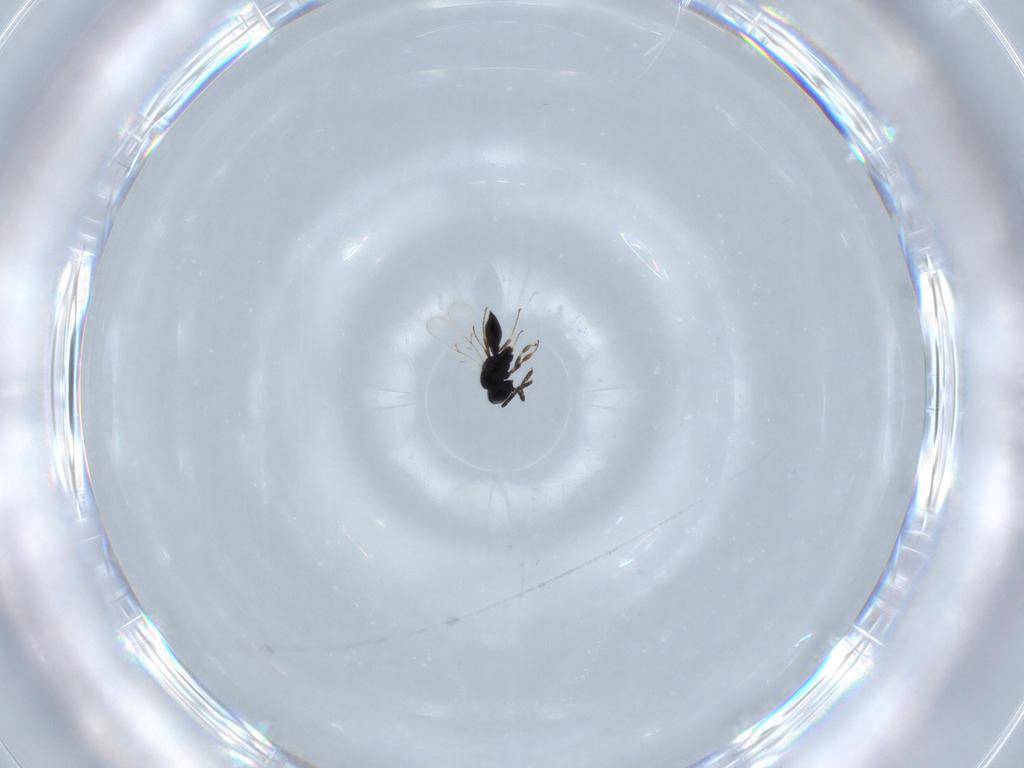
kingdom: Animalia
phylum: Arthropoda
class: Insecta
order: Hymenoptera
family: Scelionidae
